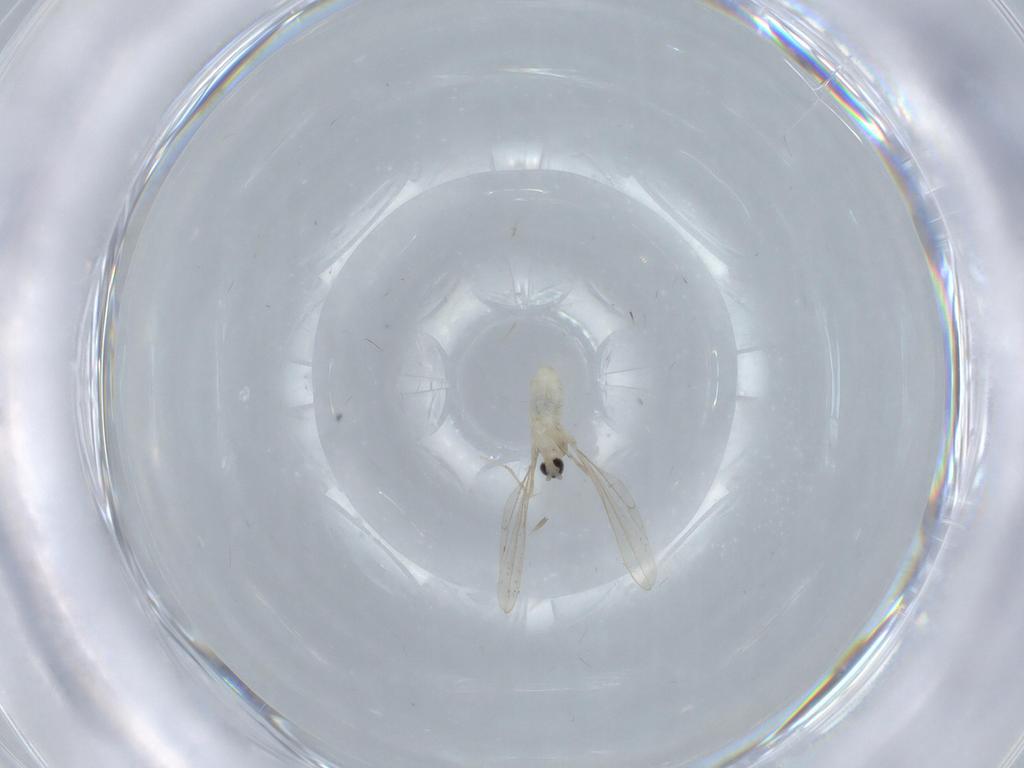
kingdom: Animalia
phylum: Arthropoda
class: Insecta
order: Diptera
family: Cecidomyiidae
